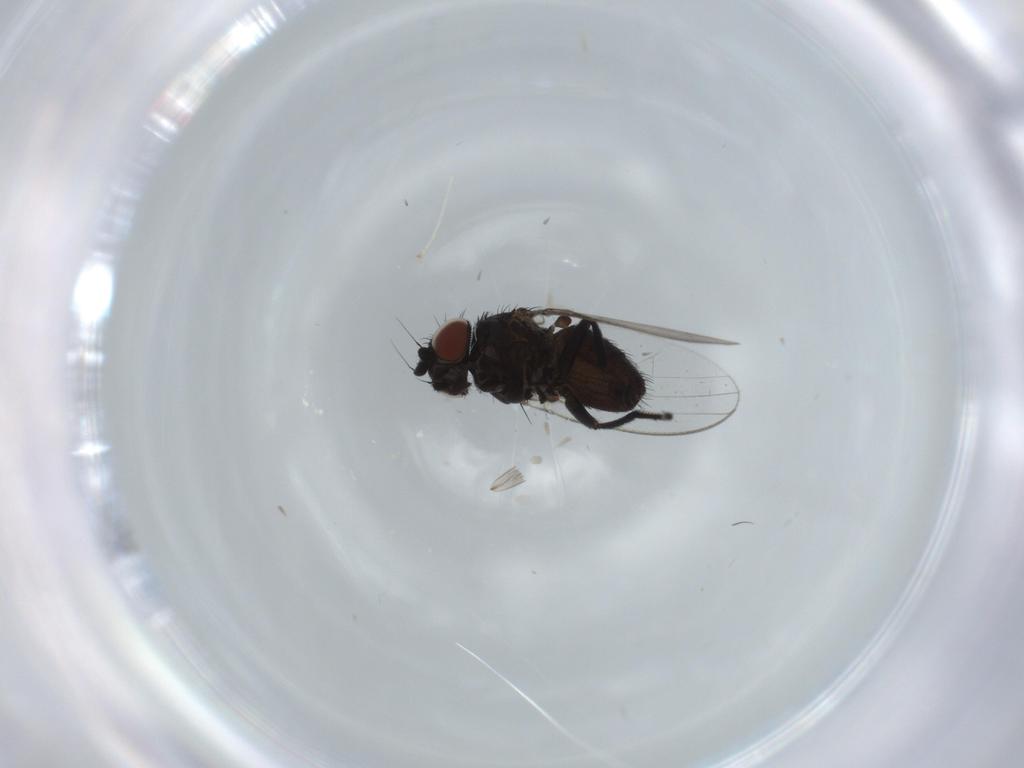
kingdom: Animalia
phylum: Arthropoda
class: Insecta
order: Diptera
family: Milichiidae
